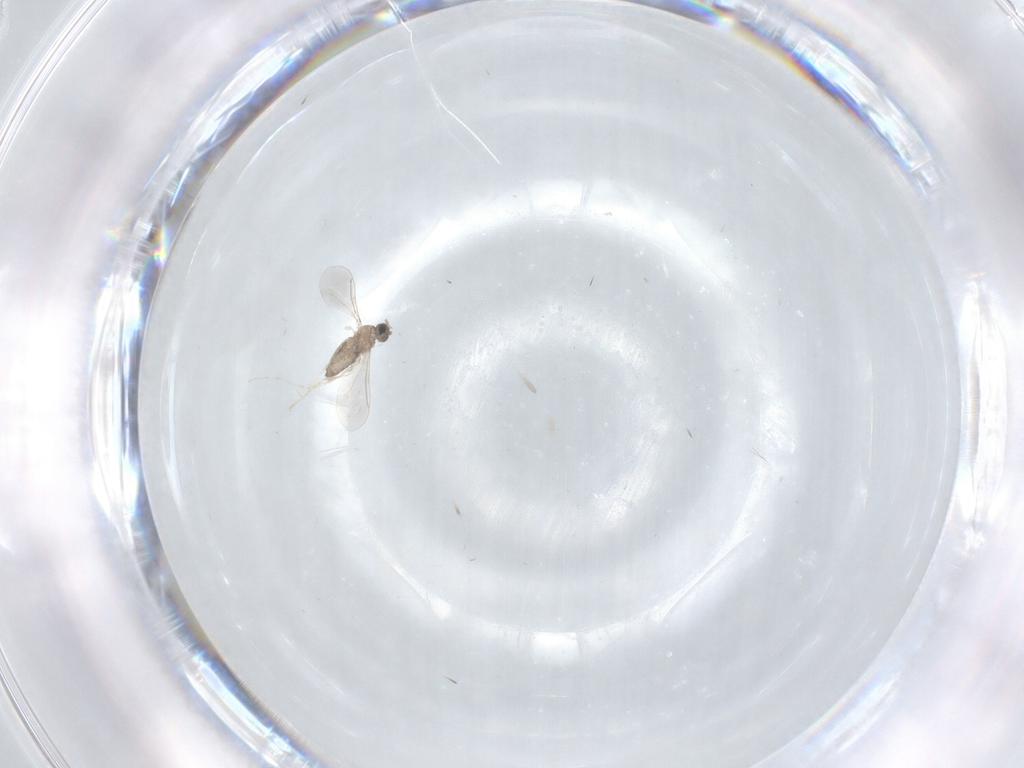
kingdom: Animalia
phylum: Arthropoda
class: Insecta
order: Diptera
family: Cecidomyiidae
